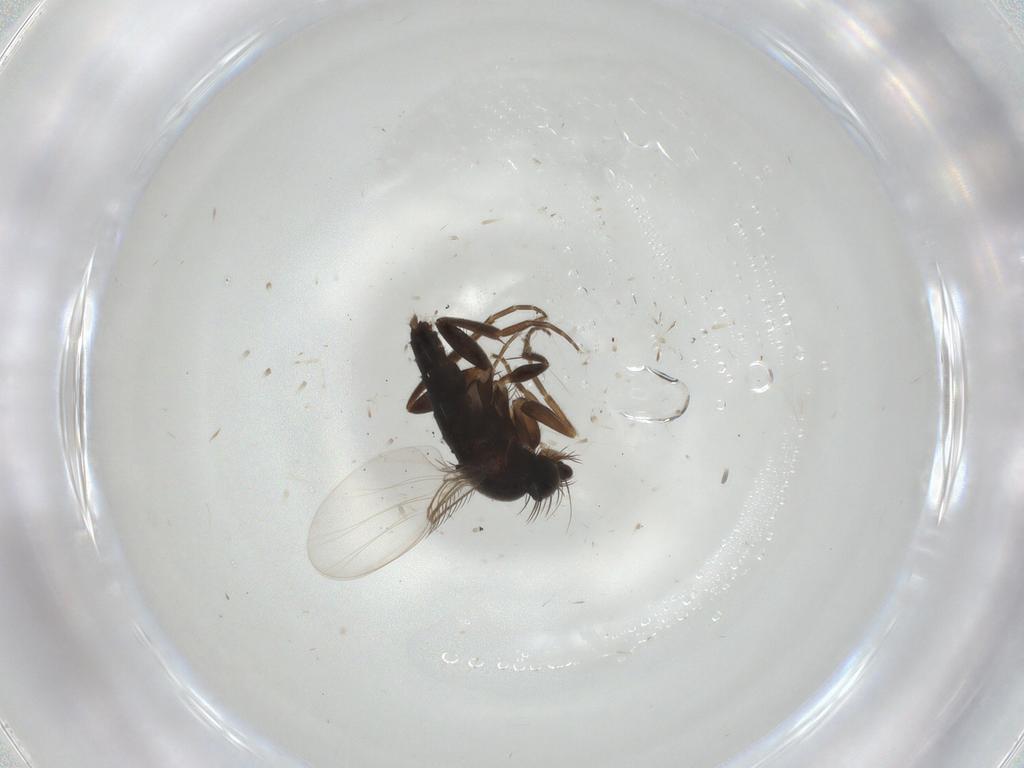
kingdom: Animalia
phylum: Arthropoda
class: Insecta
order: Diptera
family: Phoridae
